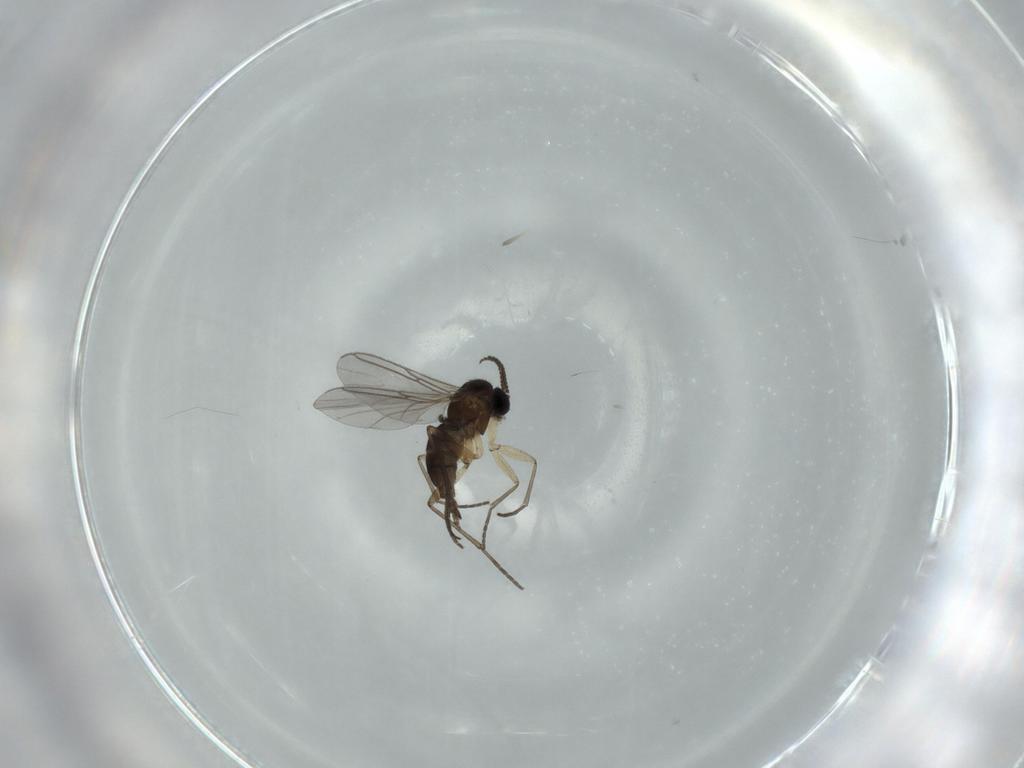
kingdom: Animalia
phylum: Arthropoda
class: Insecta
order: Diptera
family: Sciaridae
